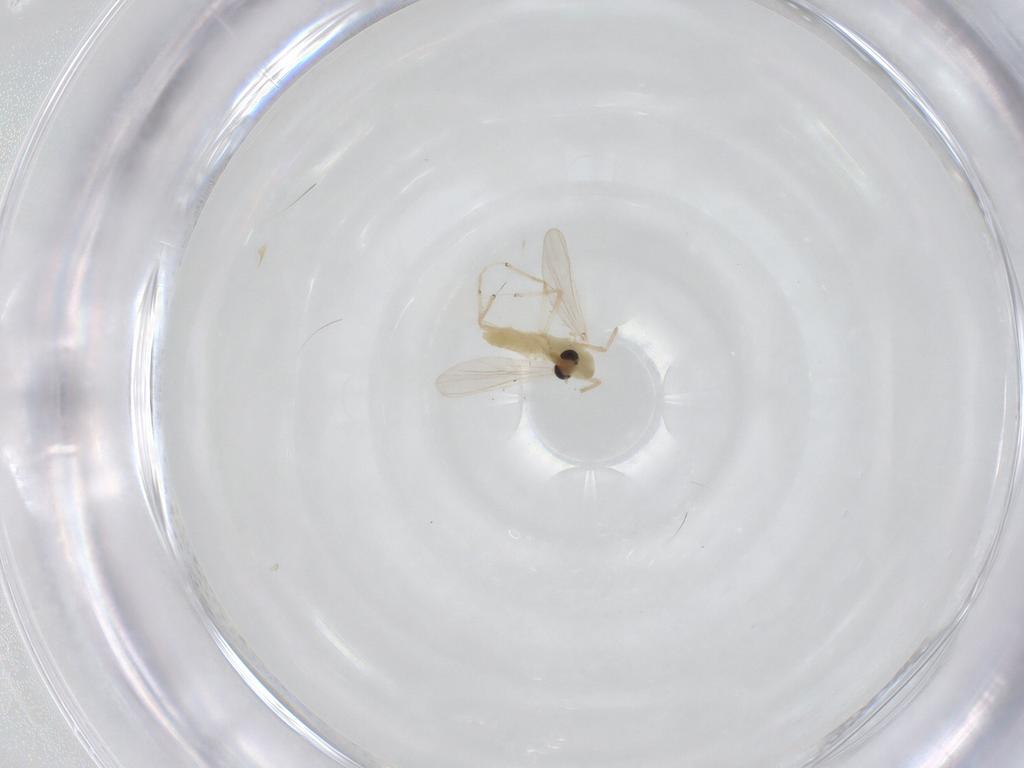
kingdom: Animalia
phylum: Arthropoda
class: Insecta
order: Diptera
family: Chironomidae
